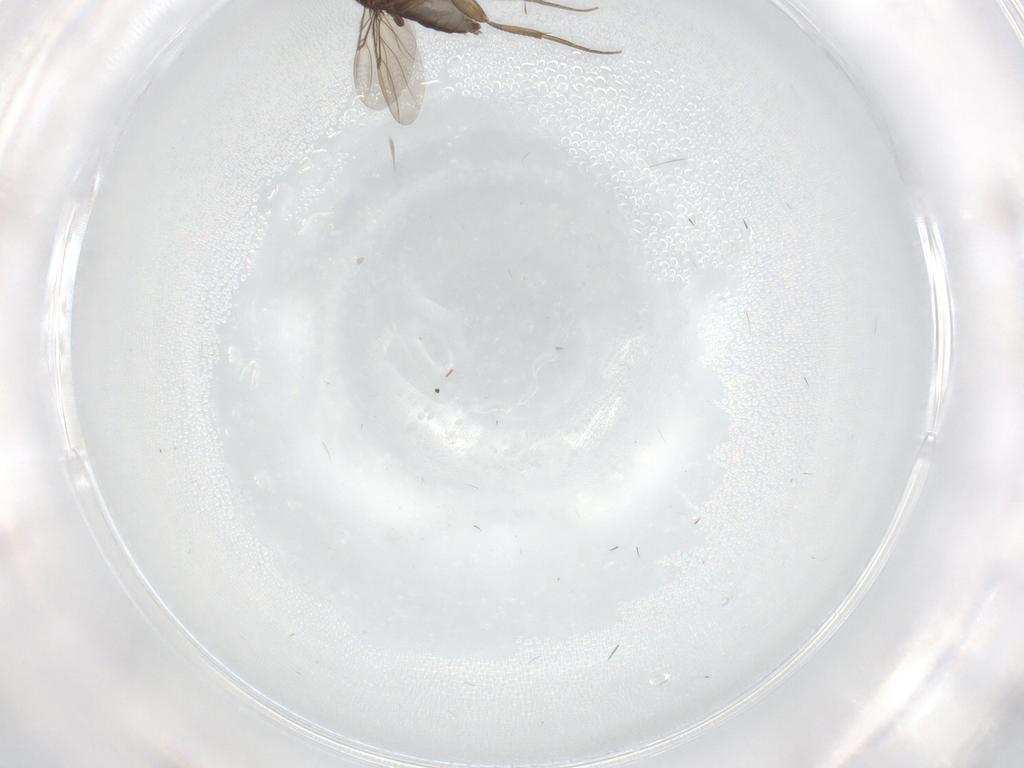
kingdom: Animalia
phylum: Arthropoda
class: Insecta
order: Diptera
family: Phoridae
